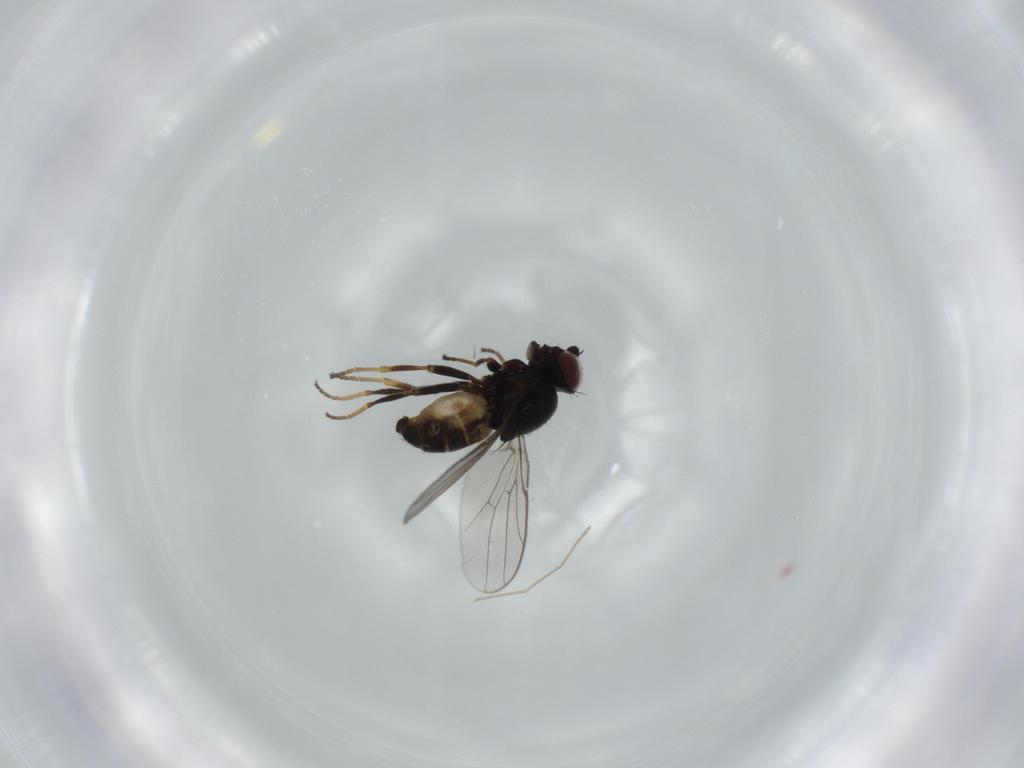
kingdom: Animalia
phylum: Arthropoda
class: Insecta
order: Diptera
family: Chloropidae
